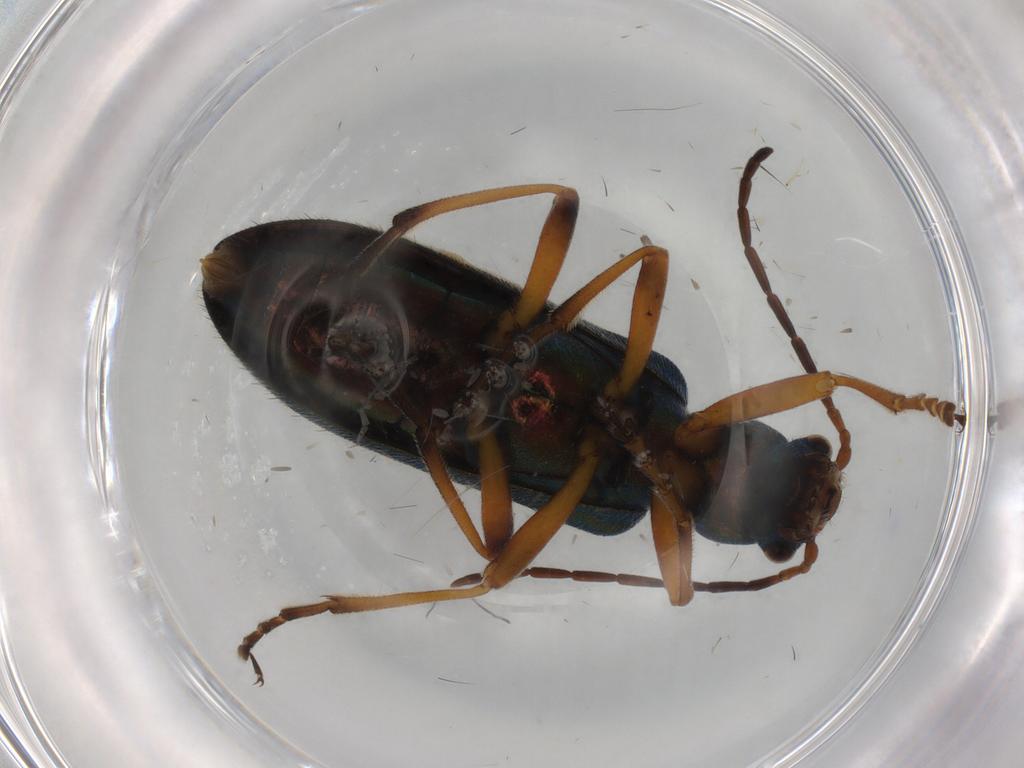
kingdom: Animalia
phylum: Arthropoda
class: Insecta
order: Coleoptera
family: Oedemeridae
